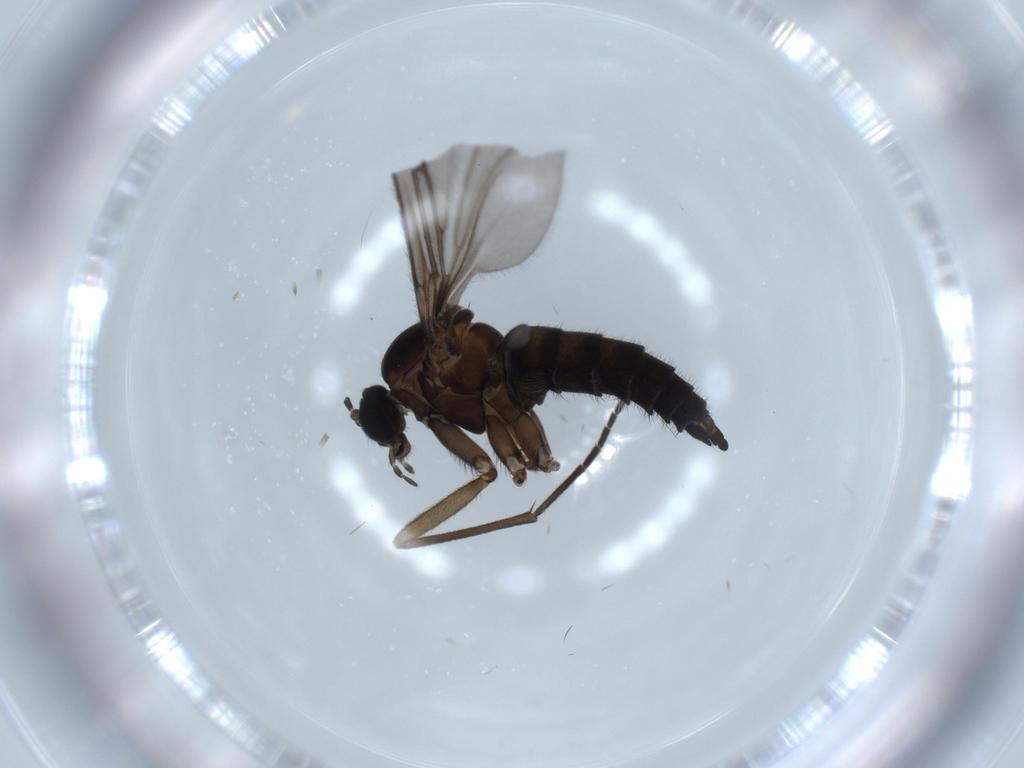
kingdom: Animalia
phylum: Arthropoda
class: Insecta
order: Diptera
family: Sciaridae
